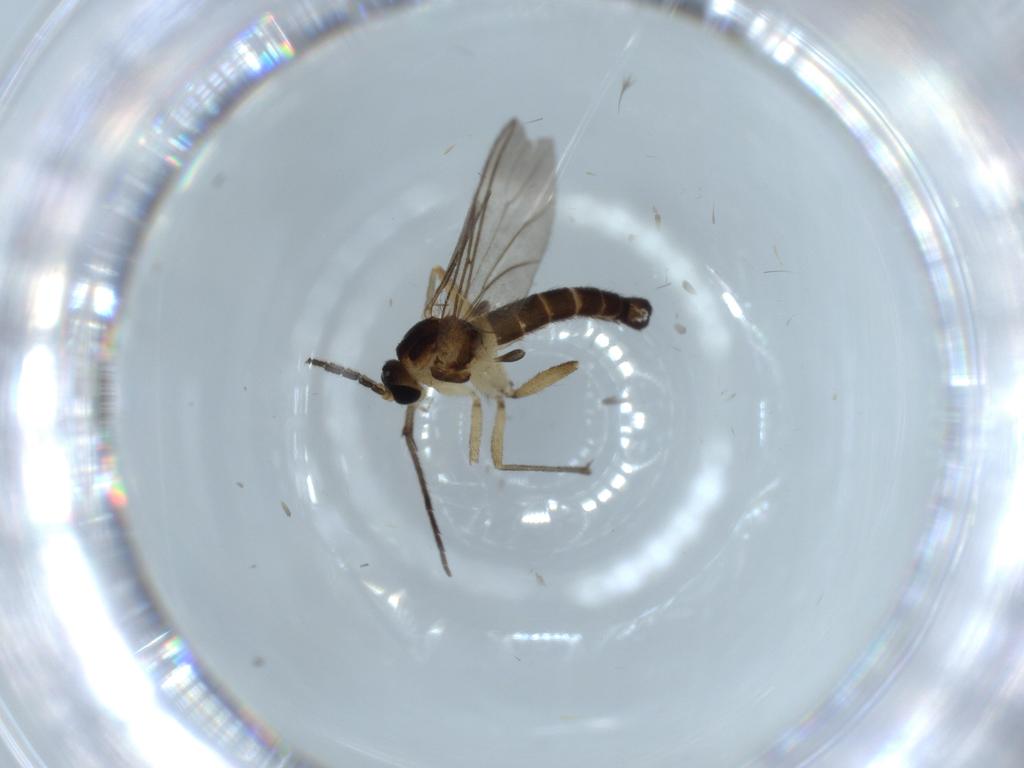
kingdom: Animalia
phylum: Arthropoda
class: Insecta
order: Diptera
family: Sciaridae
